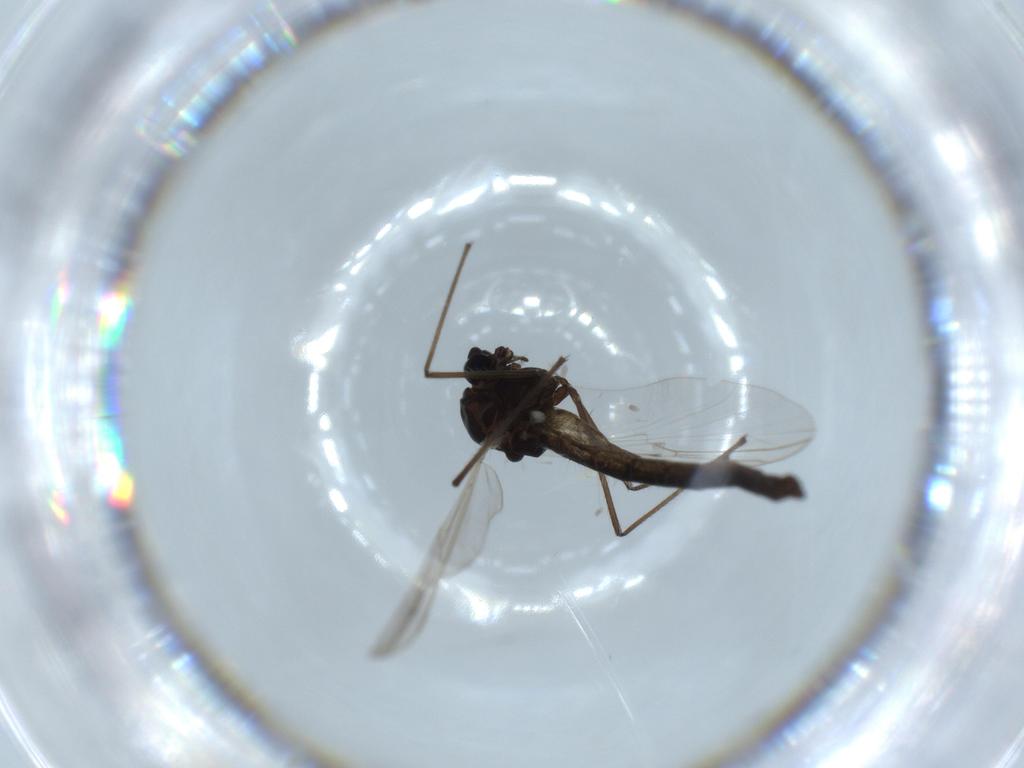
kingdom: Animalia
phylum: Arthropoda
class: Insecta
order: Diptera
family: Chironomidae
